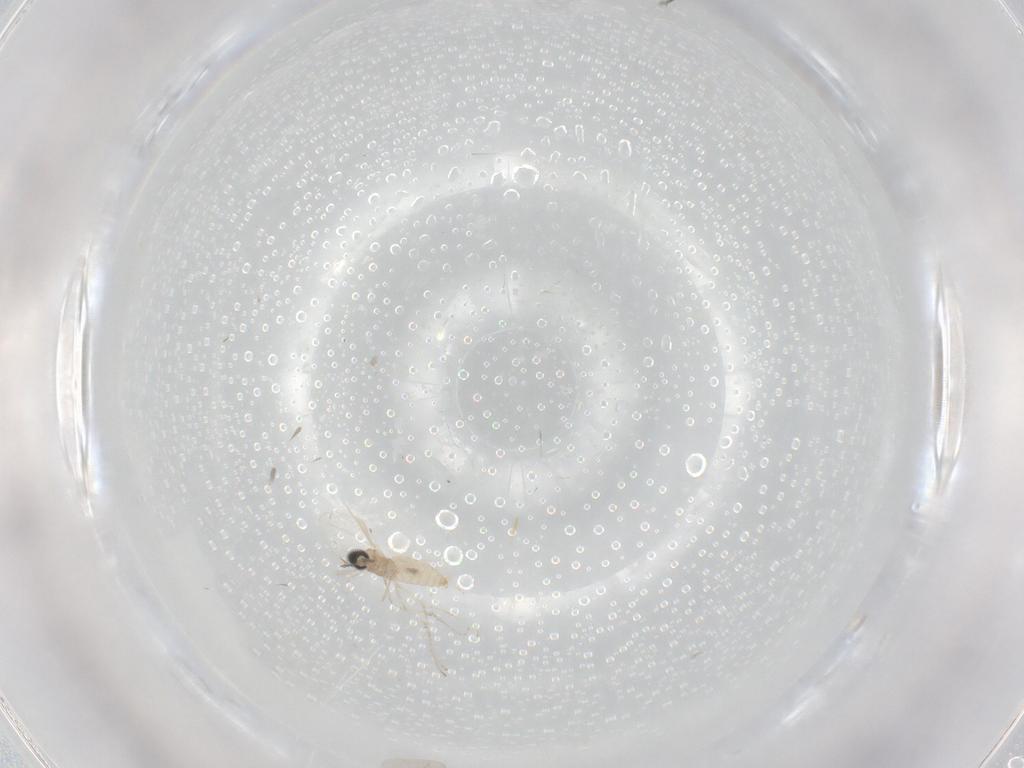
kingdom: Animalia
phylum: Arthropoda
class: Insecta
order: Diptera
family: Cecidomyiidae
